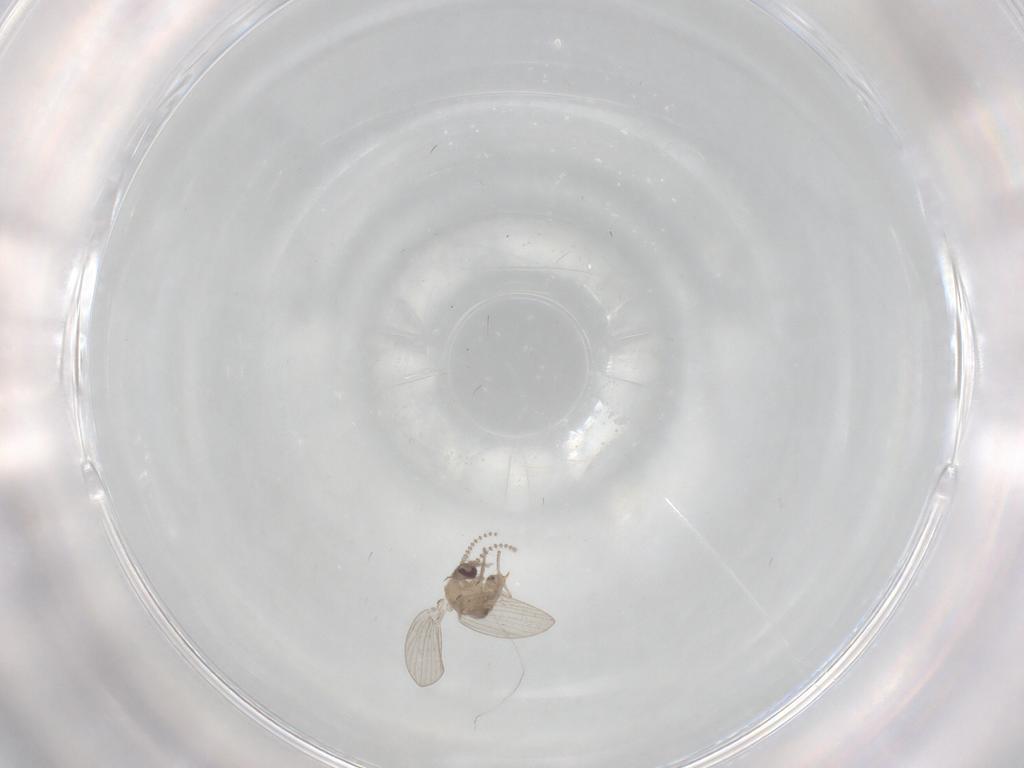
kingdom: Animalia
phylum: Arthropoda
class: Insecta
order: Diptera
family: Psychodidae
